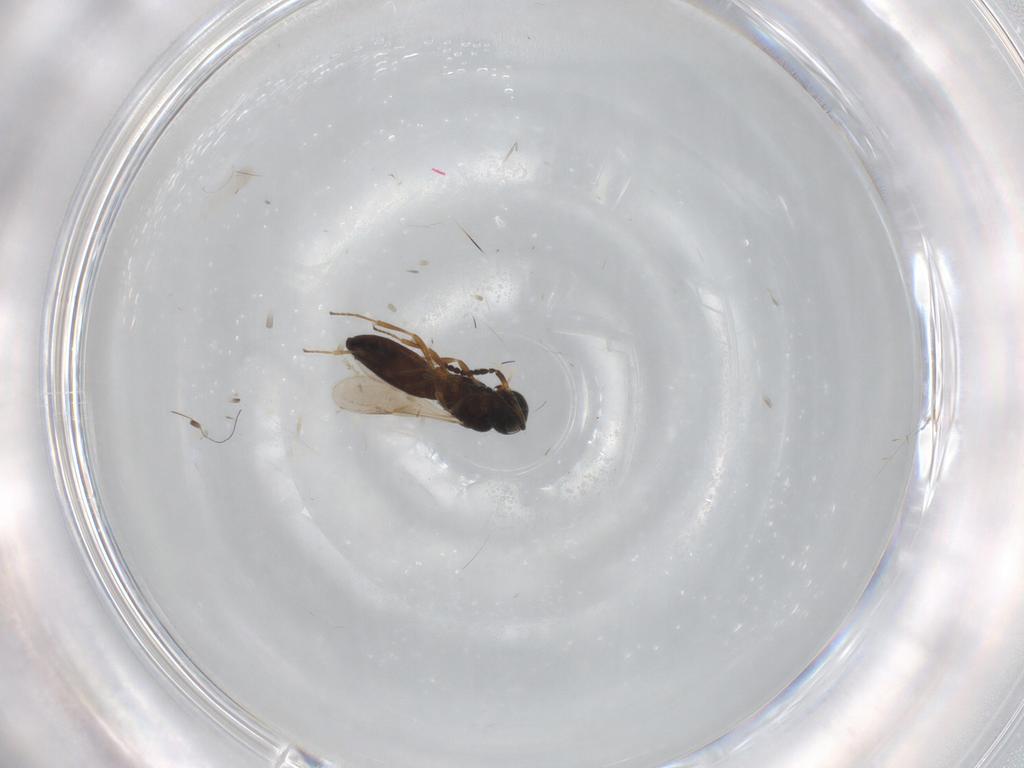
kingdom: Animalia
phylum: Arthropoda
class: Insecta
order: Hymenoptera
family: Scelionidae
